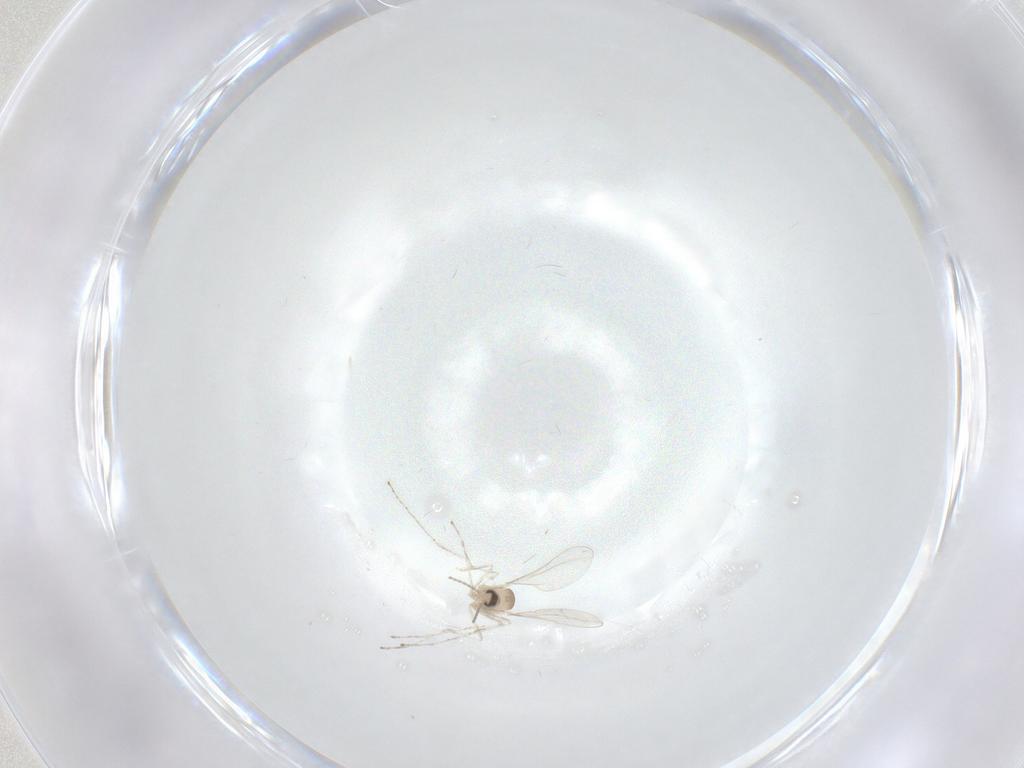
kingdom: Animalia
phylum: Arthropoda
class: Insecta
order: Diptera
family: Cecidomyiidae
